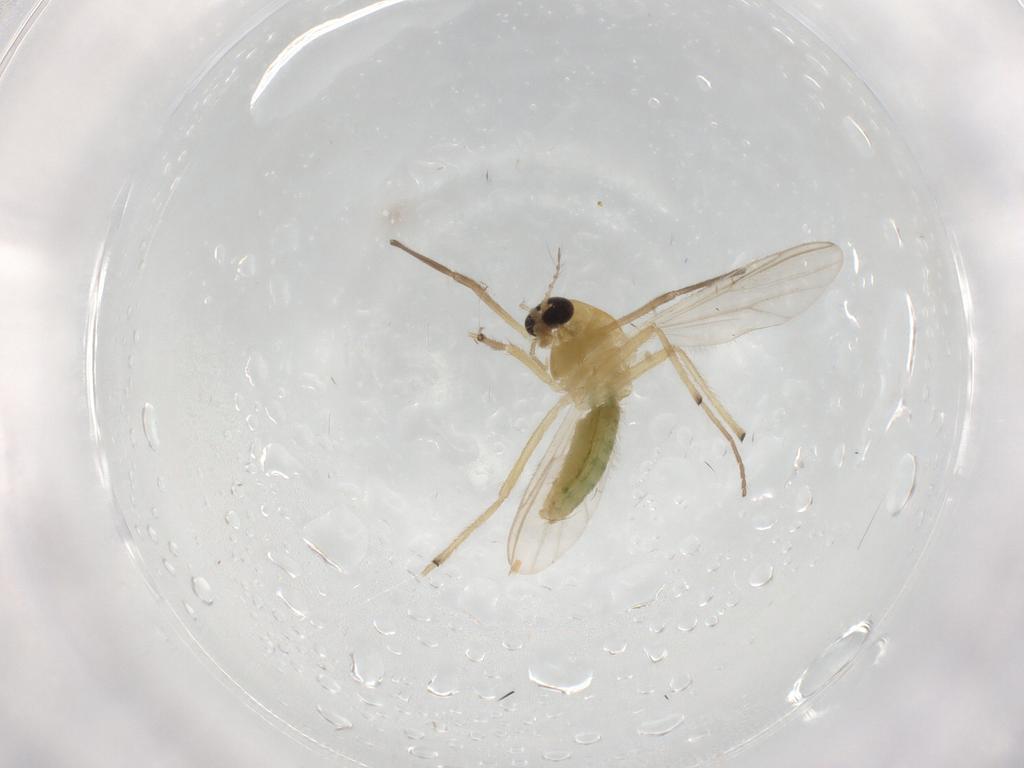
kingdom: Animalia
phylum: Arthropoda
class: Insecta
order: Diptera
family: Chironomidae
